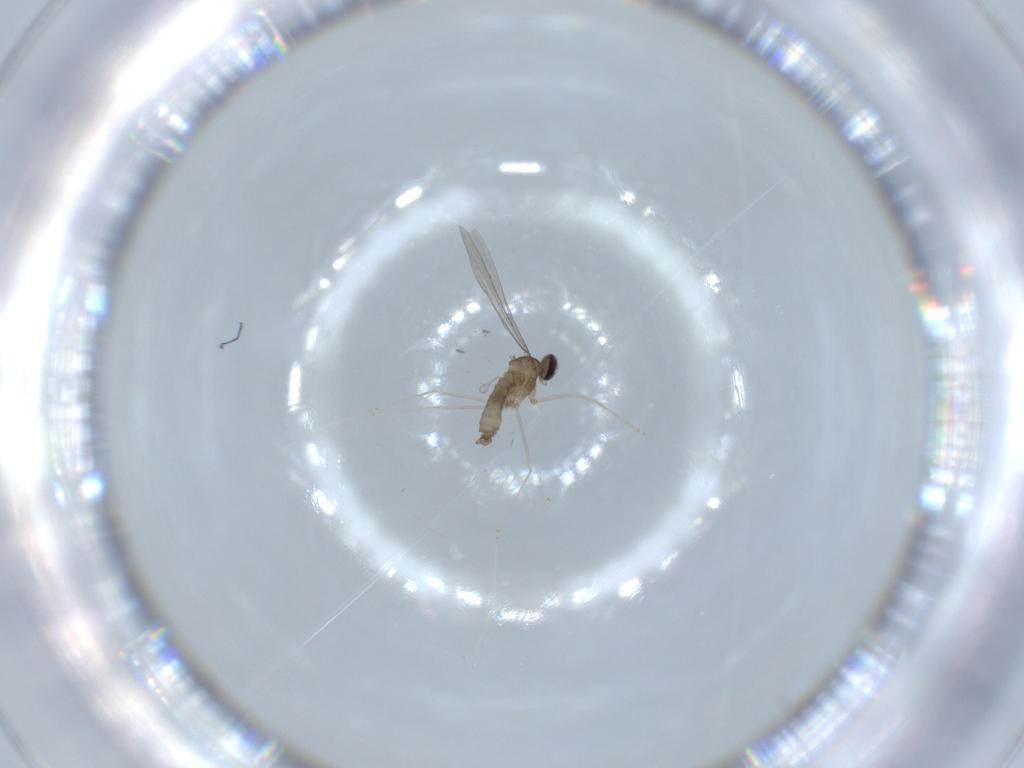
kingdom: Animalia
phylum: Arthropoda
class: Insecta
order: Diptera
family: Cecidomyiidae
